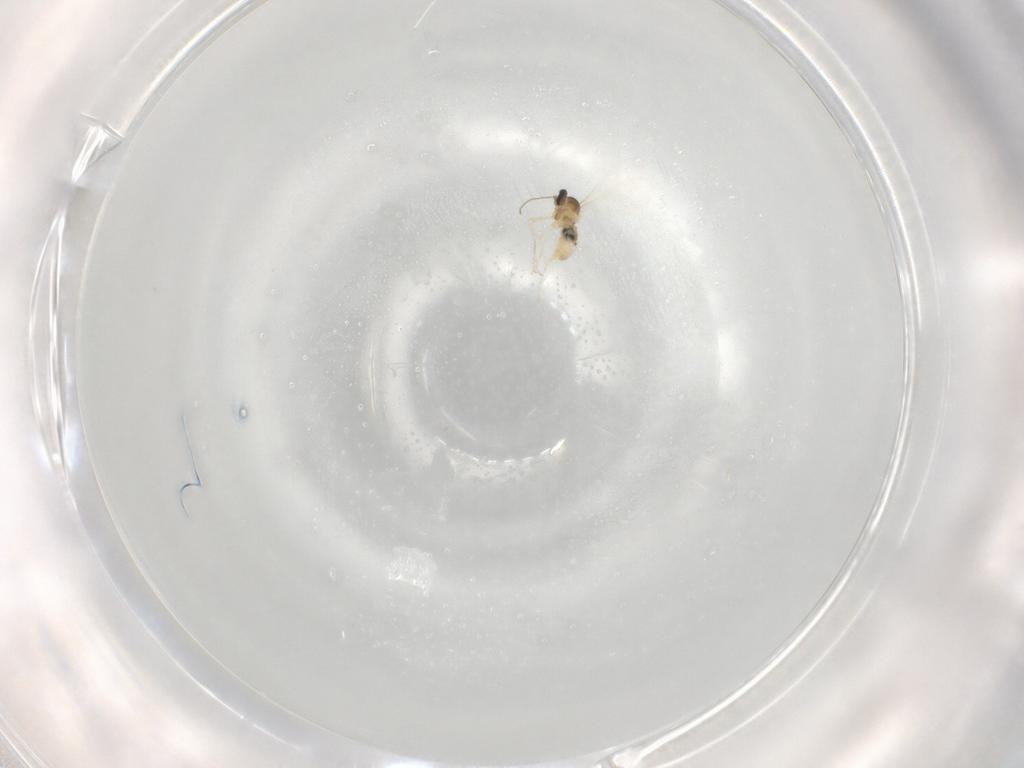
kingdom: Animalia
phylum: Arthropoda
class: Insecta
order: Diptera
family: Cecidomyiidae
